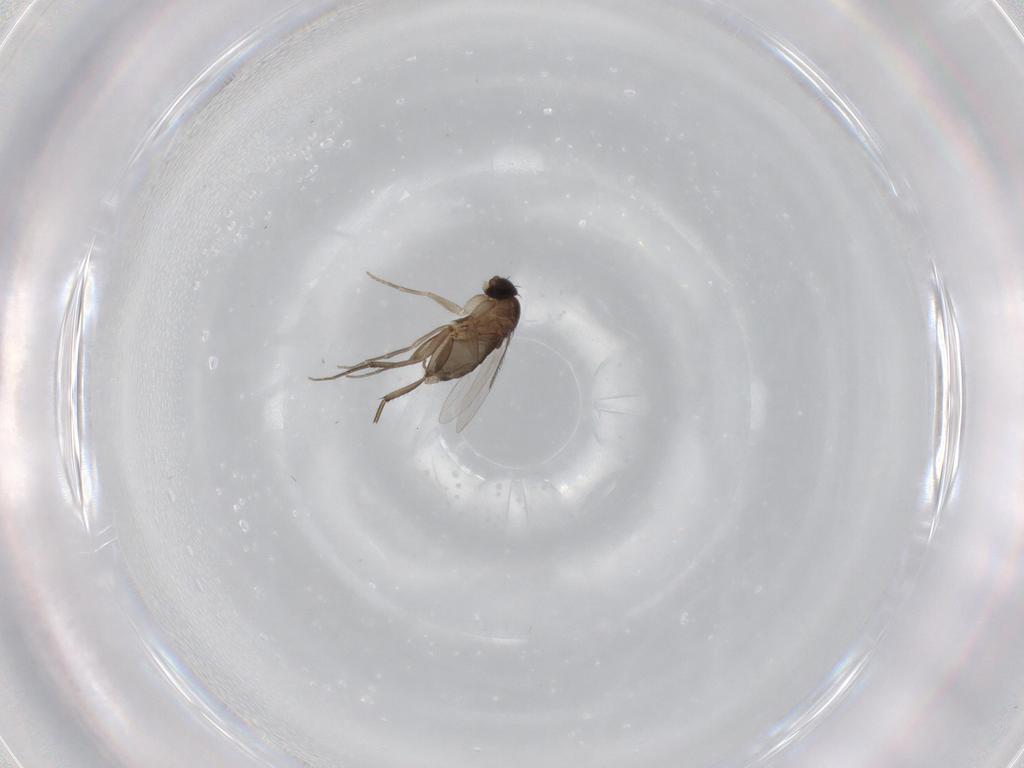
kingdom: Animalia
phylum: Arthropoda
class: Insecta
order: Diptera
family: Phoridae
